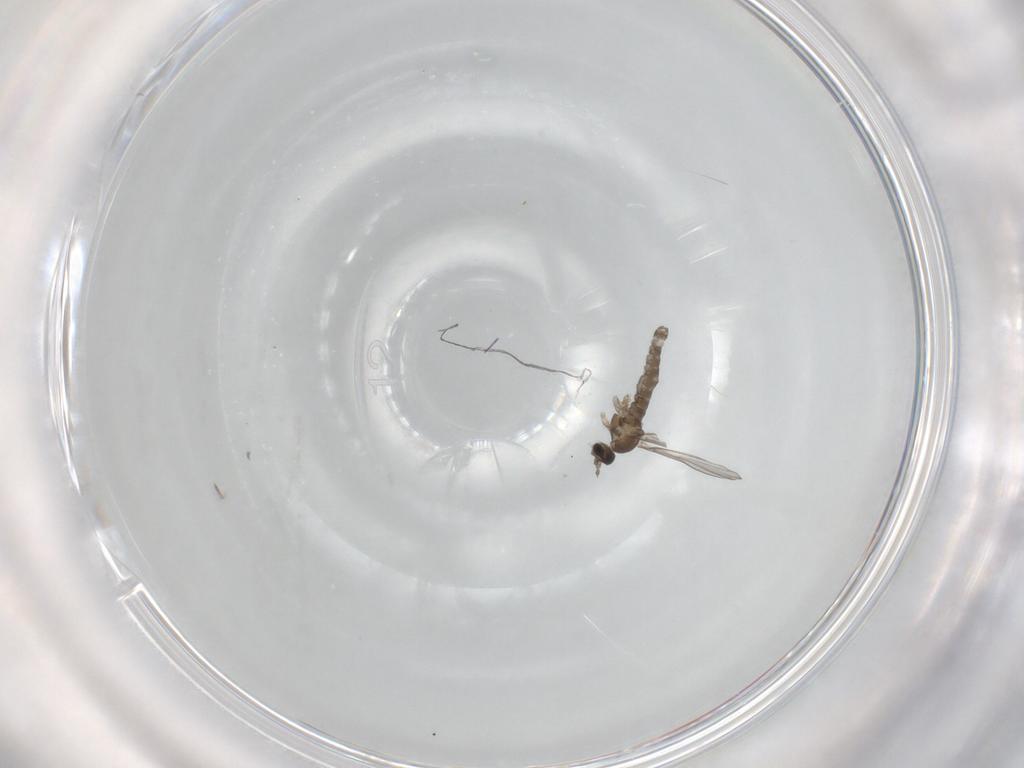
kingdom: Animalia
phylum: Arthropoda
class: Insecta
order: Diptera
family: Cecidomyiidae
